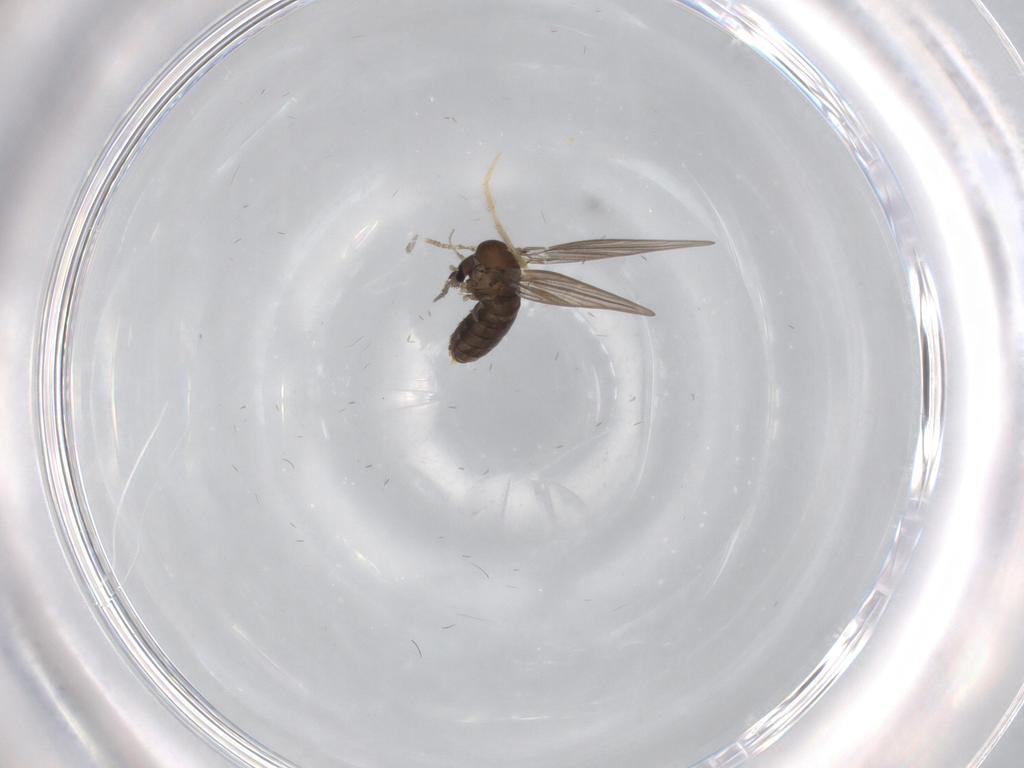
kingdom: Animalia
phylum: Arthropoda
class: Insecta
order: Diptera
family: Psychodidae
